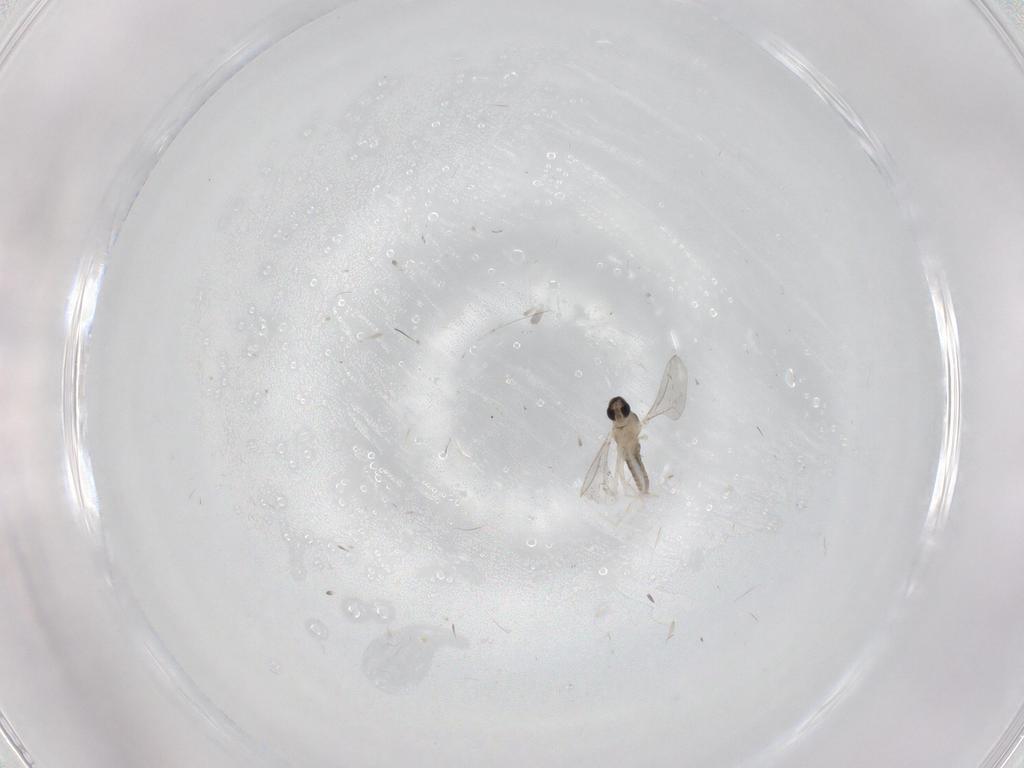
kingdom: Animalia
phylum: Arthropoda
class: Insecta
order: Diptera
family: Cecidomyiidae
